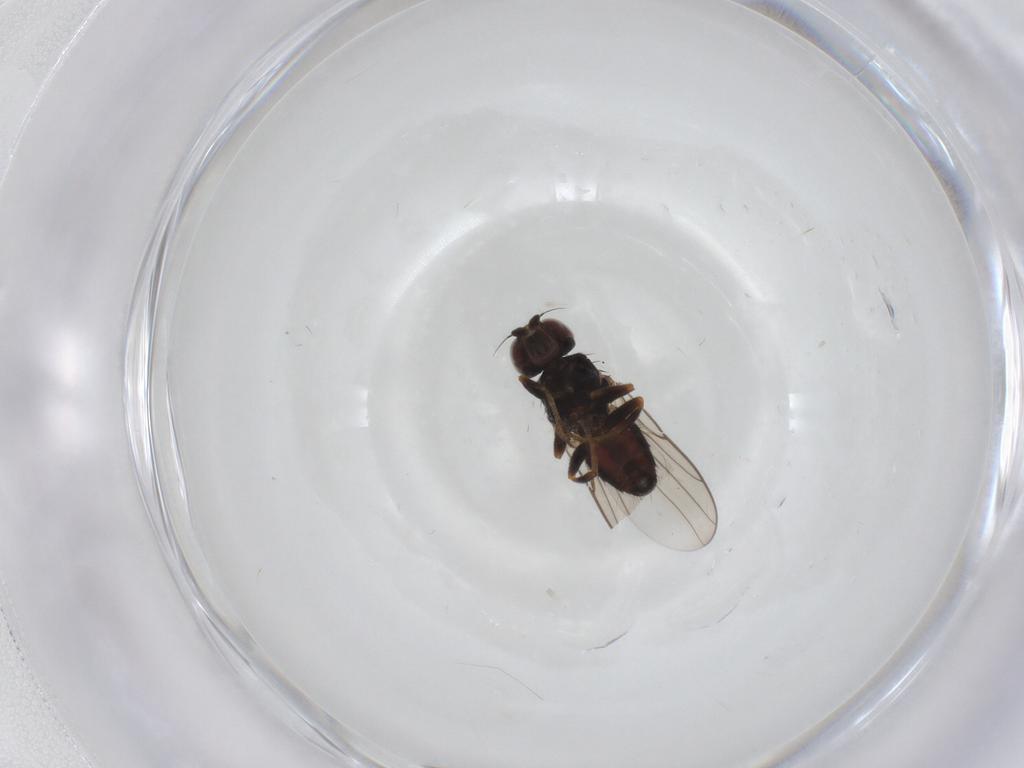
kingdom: Animalia
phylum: Arthropoda
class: Insecta
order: Diptera
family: Chloropidae
